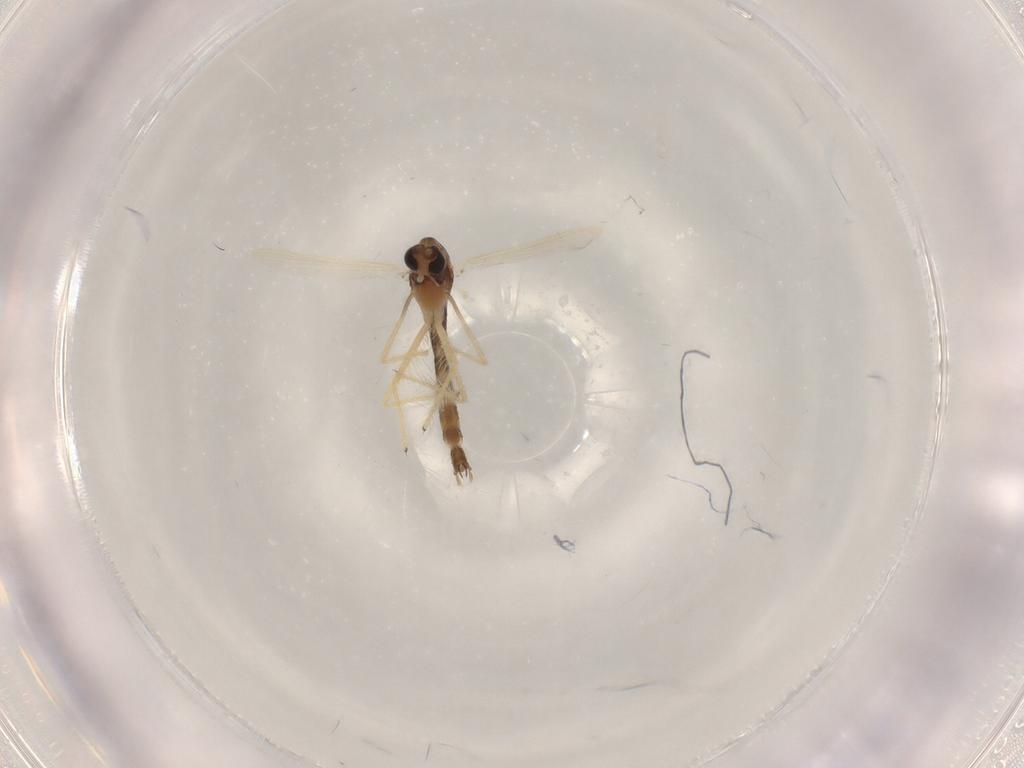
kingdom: Animalia
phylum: Arthropoda
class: Insecta
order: Diptera
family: Chironomidae
